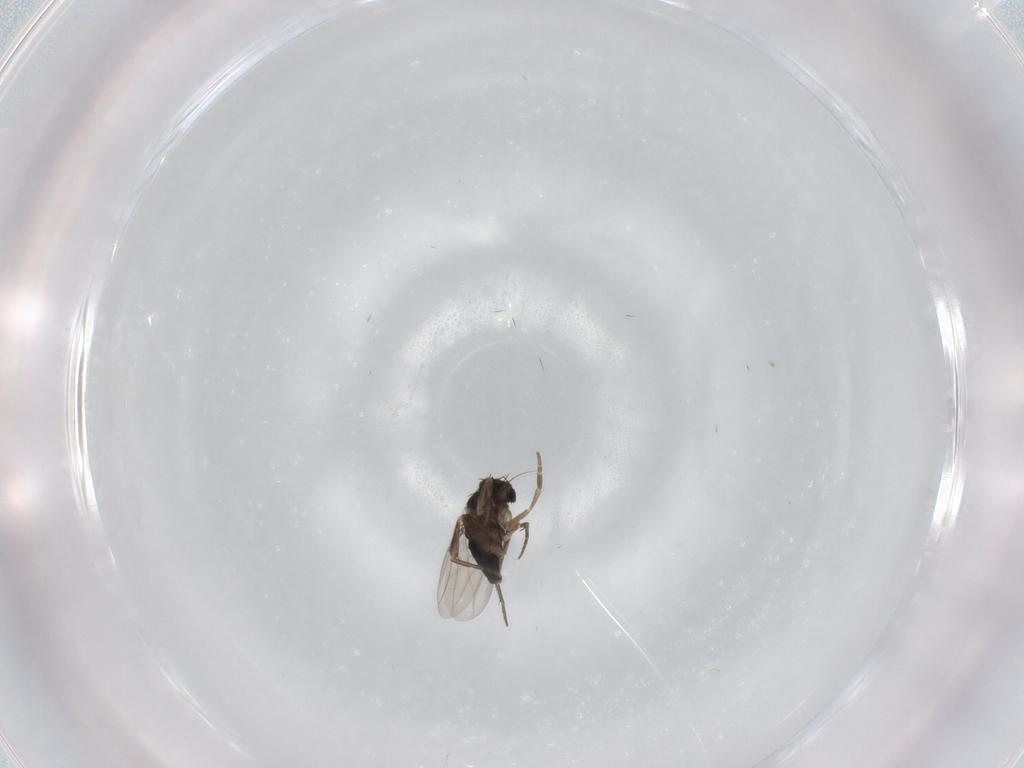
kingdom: Animalia
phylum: Arthropoda
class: Insecta
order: Diptera
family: Phoridae
